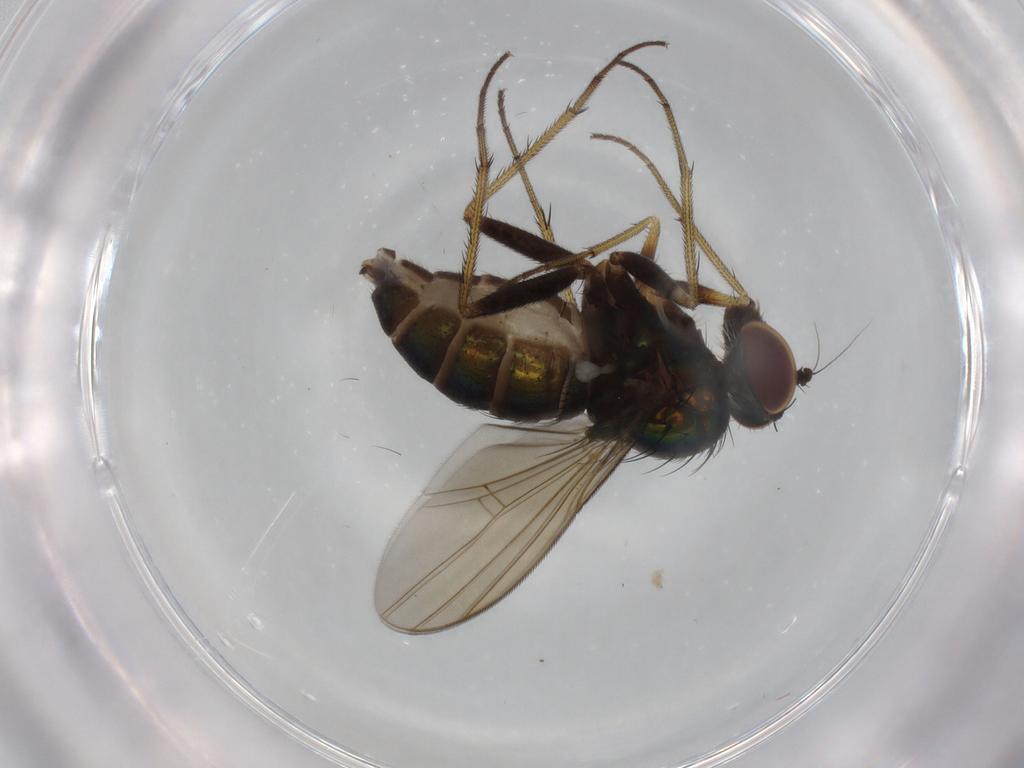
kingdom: Animalia
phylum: Arthropoda
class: Insecta
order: Diptera
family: Dolichopodidae
